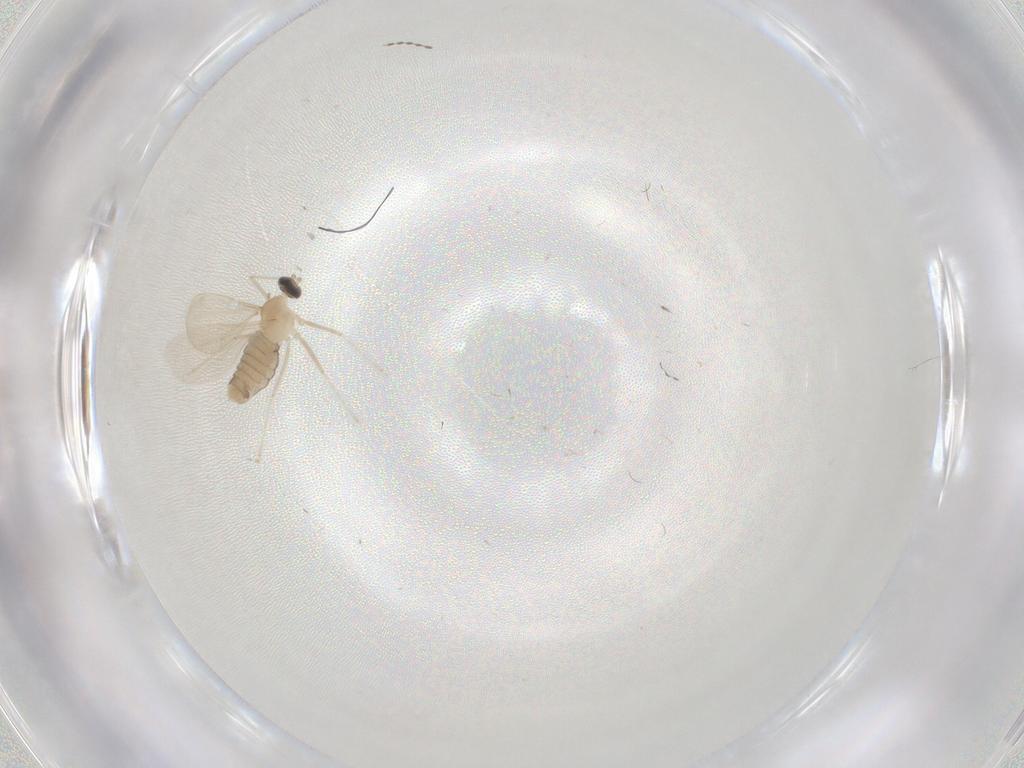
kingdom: Animalia
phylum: Arthropoda
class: Insecta
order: Diptera
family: Cecidomyiidae
